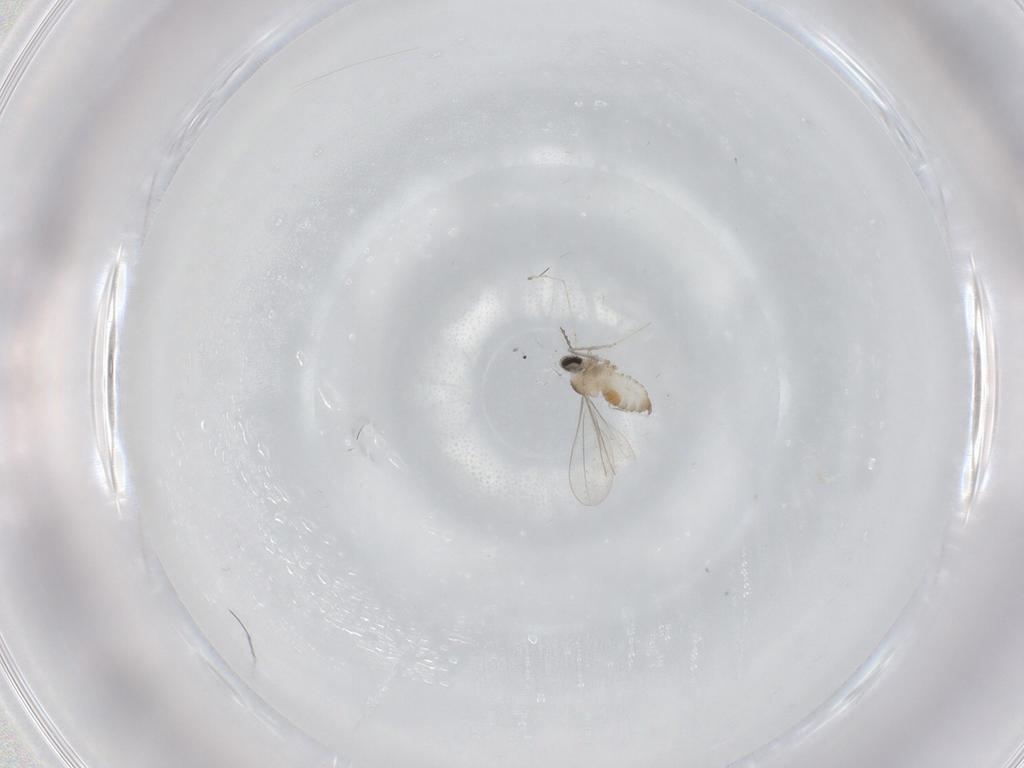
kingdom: Animalia
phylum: Arthropoda
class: Insecta
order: Diptera
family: Cecidomyiidae
